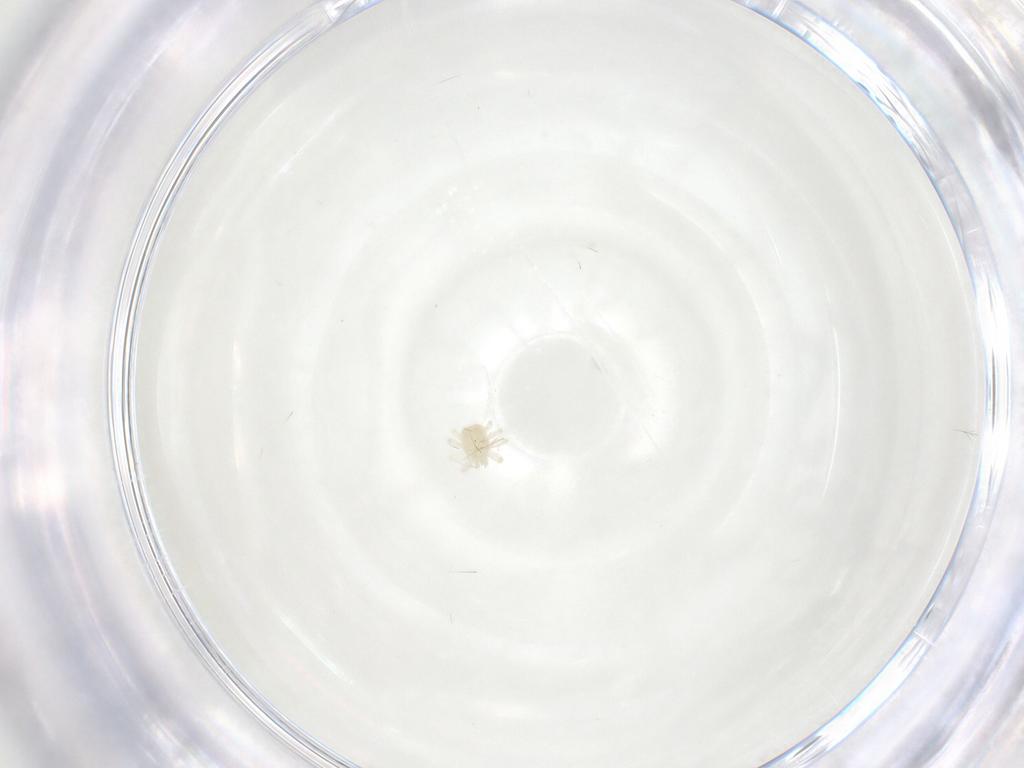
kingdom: Animalia
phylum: Arthropoda
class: Arachnida
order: Trombidiformes
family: Anystidae
